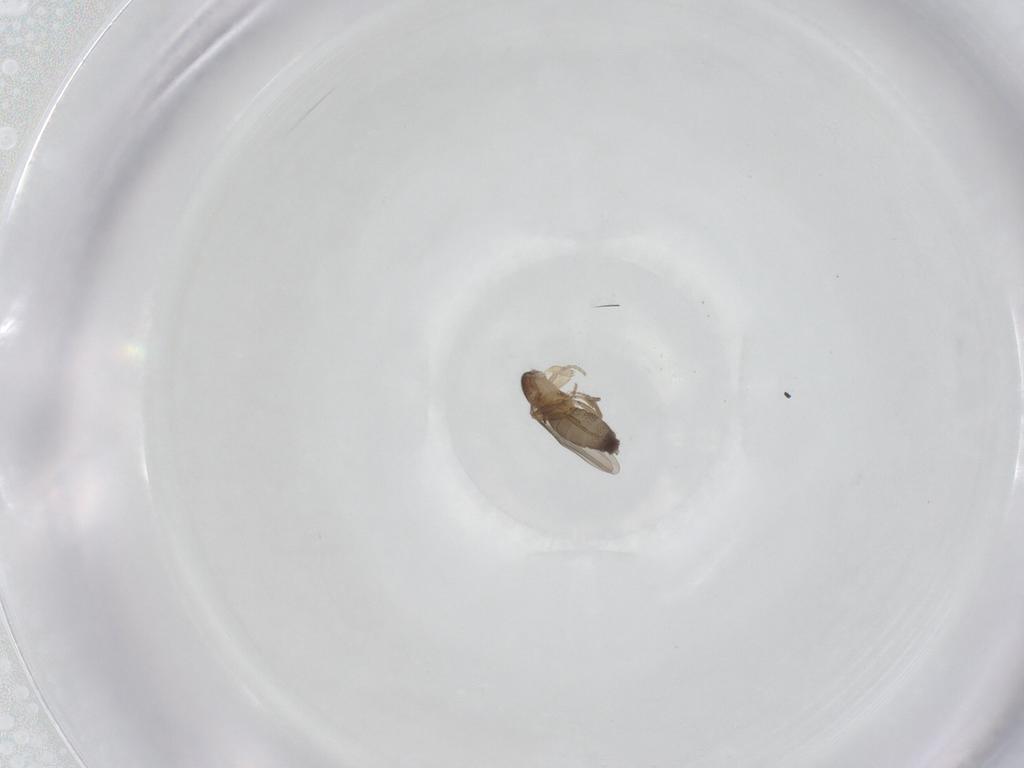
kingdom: Animalia
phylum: Arthropoda
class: Insecta
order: Diptera
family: Phoridae
